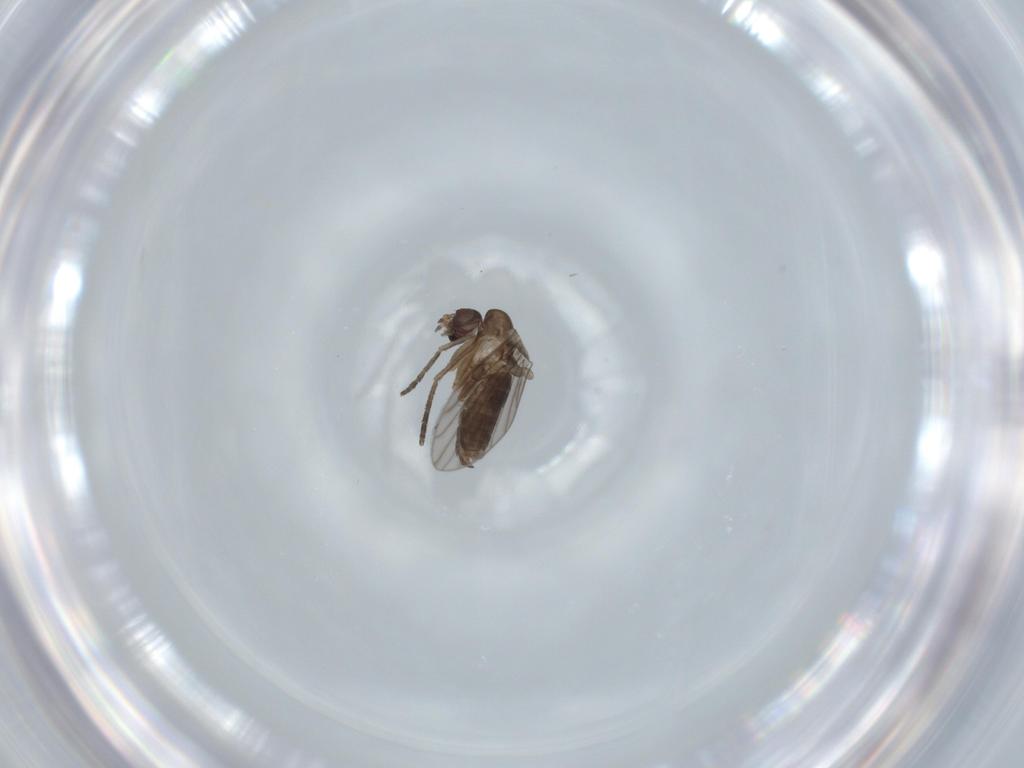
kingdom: Animalia
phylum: Arthropoda
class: Insecta
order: Diptera
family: Psychodidae
